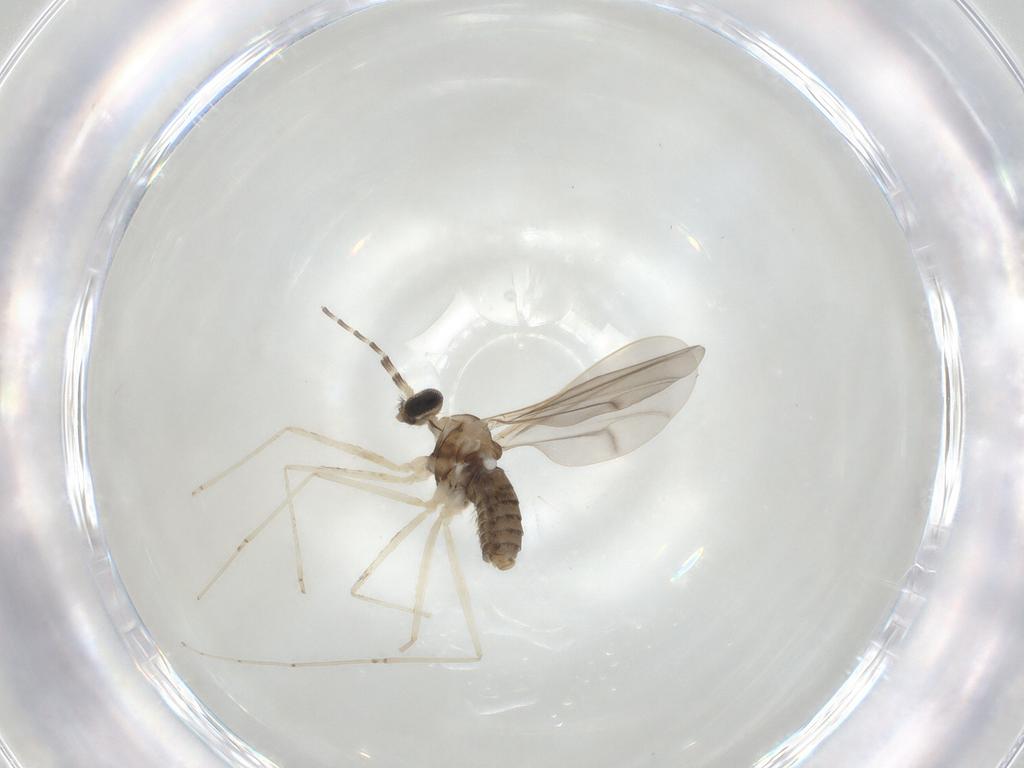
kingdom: Animalia
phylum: Arthropoda
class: Insecta
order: Diptera
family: Cecidomyiidae
